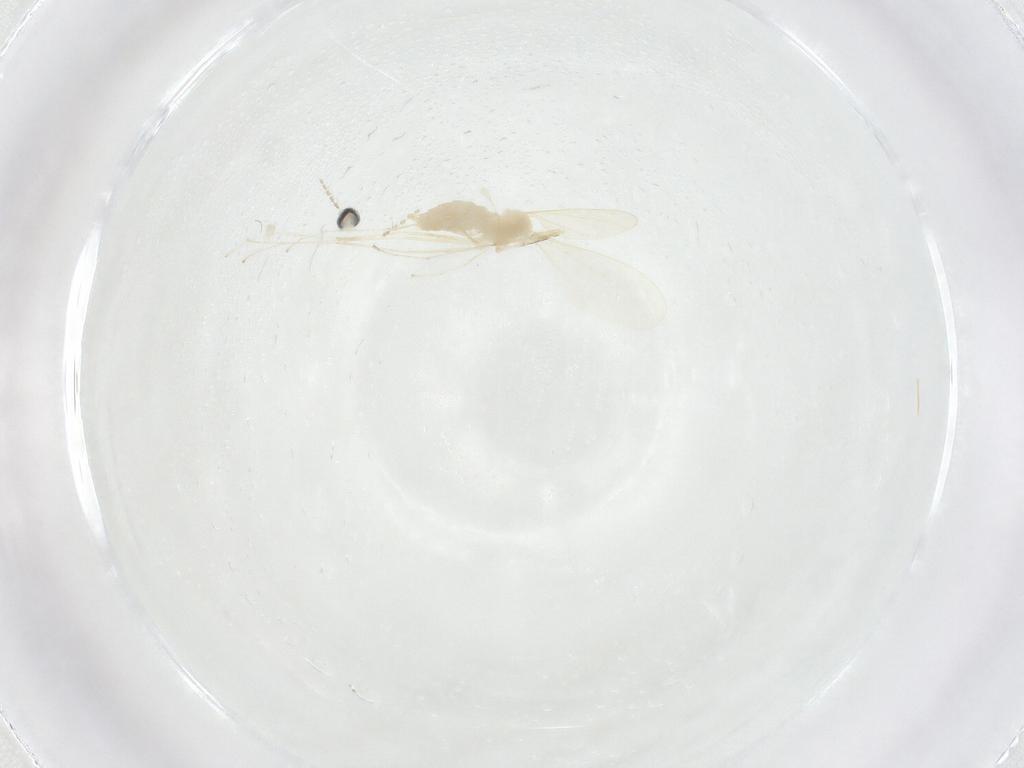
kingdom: Animalia
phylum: Arthropoda
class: Insecta
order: Diptera
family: Cecidomyiidae
